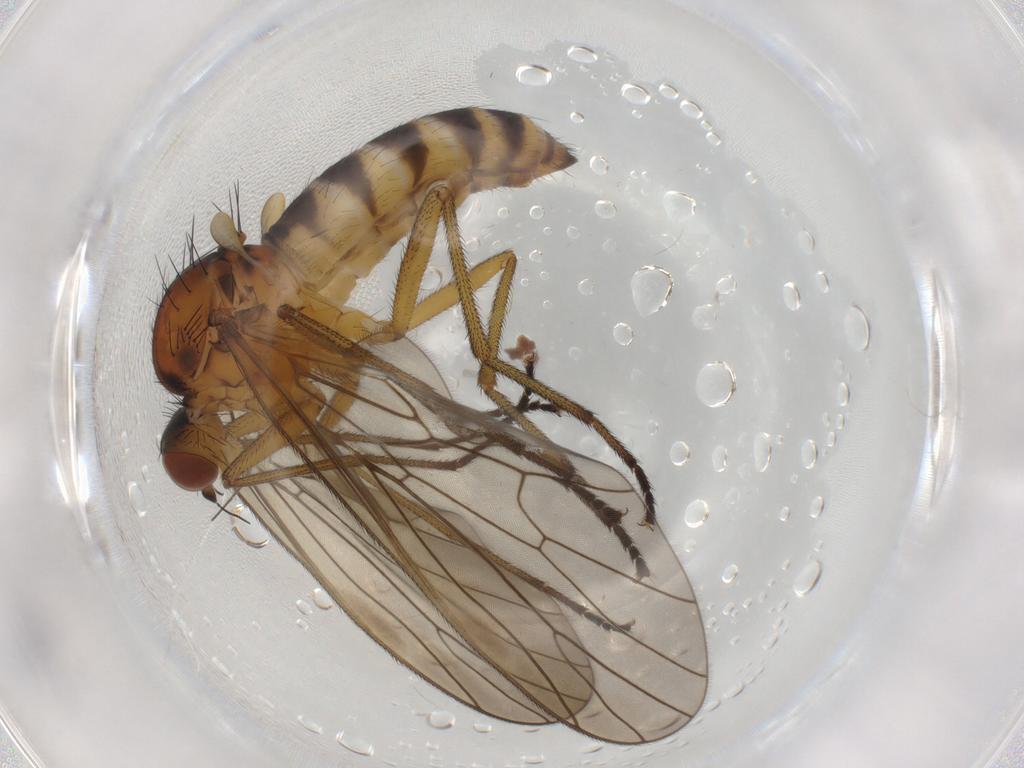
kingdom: Animalia
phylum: Arthropoda
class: Insecta
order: Diptera
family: Brachystomatidae
